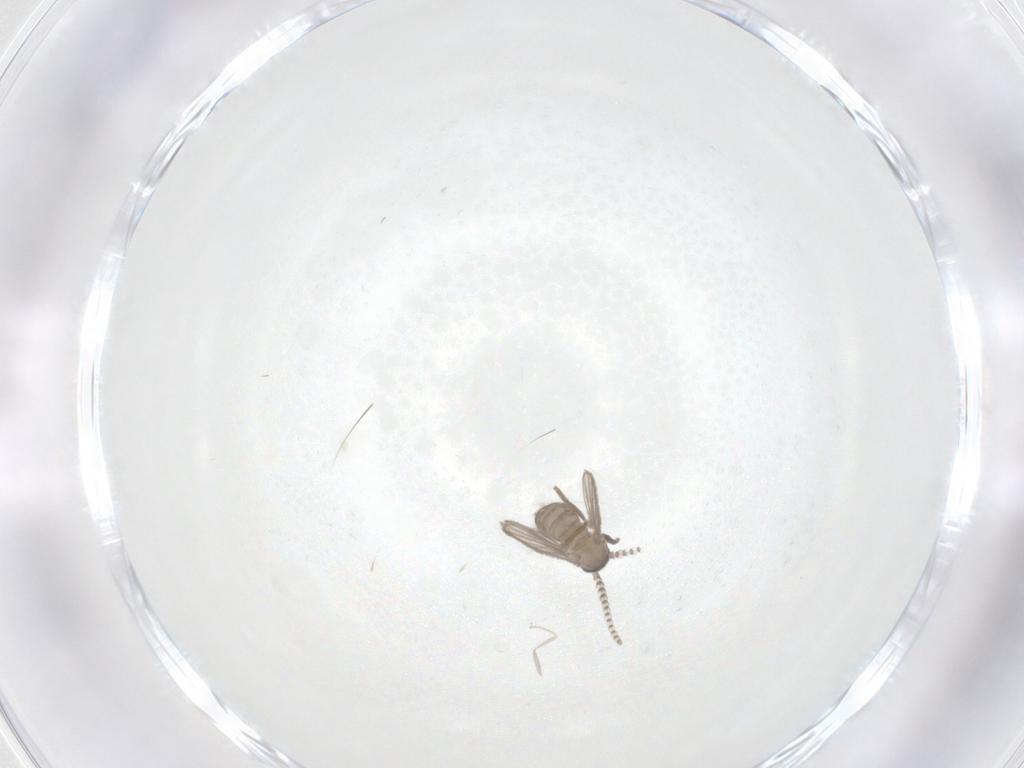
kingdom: Animalia
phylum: Arthropoda
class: Insecta
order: Diptera
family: Psychodidae
